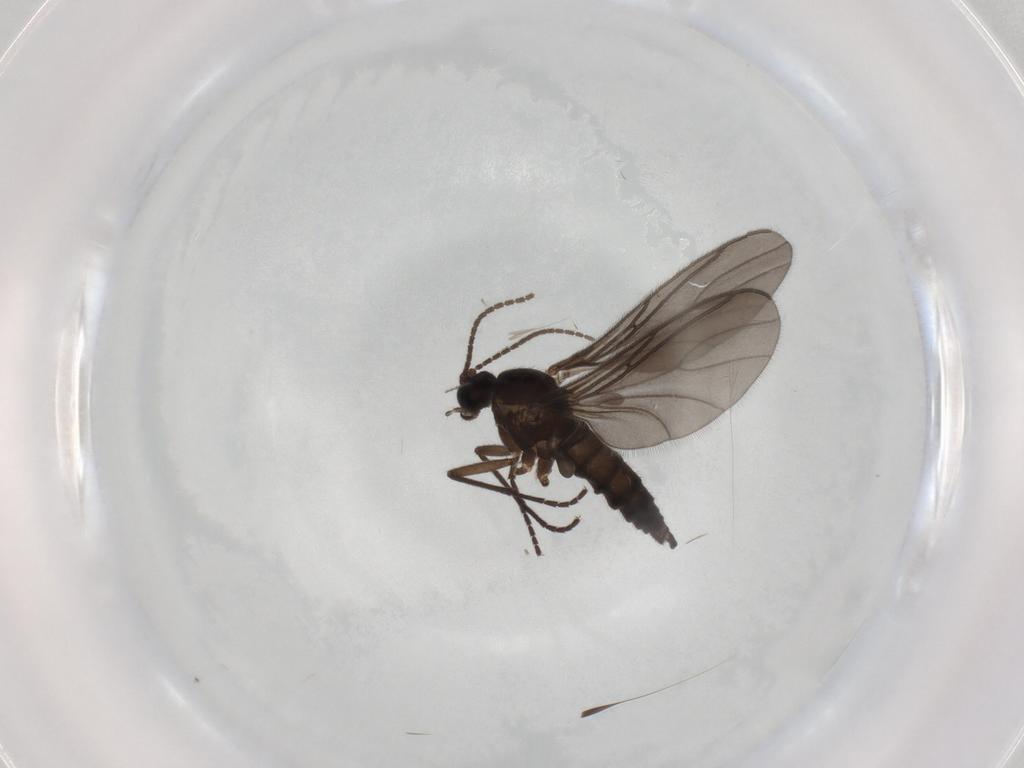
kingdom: Animalia
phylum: Arthropoda
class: Insecta
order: Diptera
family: Sciaridae
